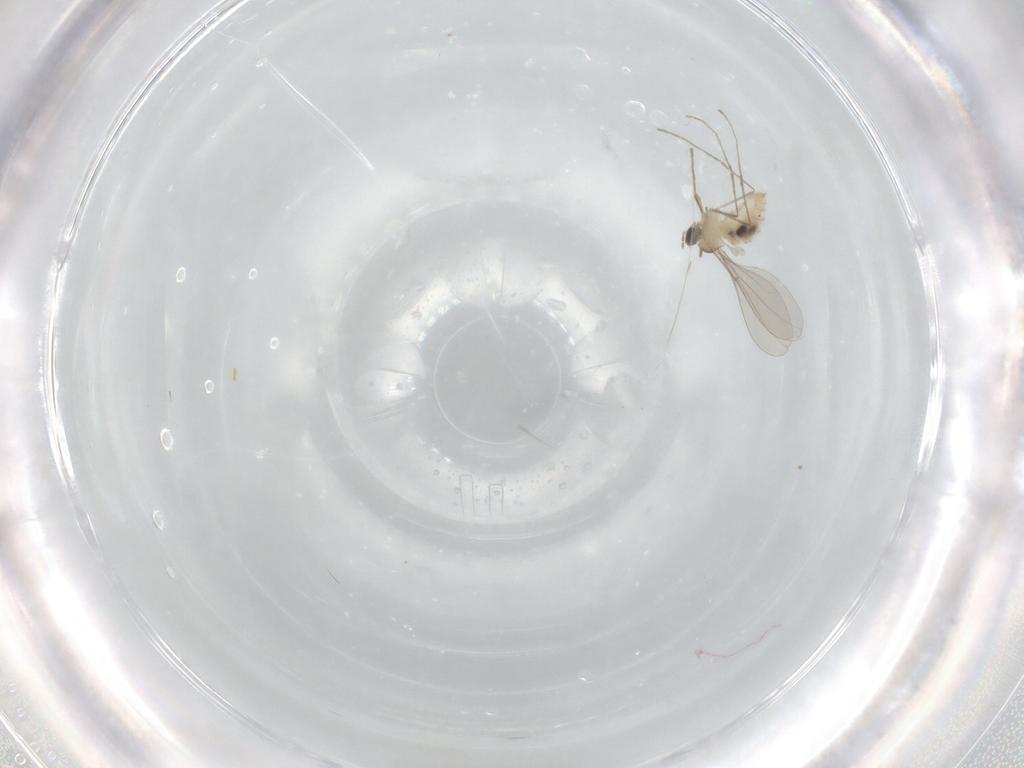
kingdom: Animalia
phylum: Arthropoda
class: Insecta
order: Diptera
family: Cecidomyiidae
